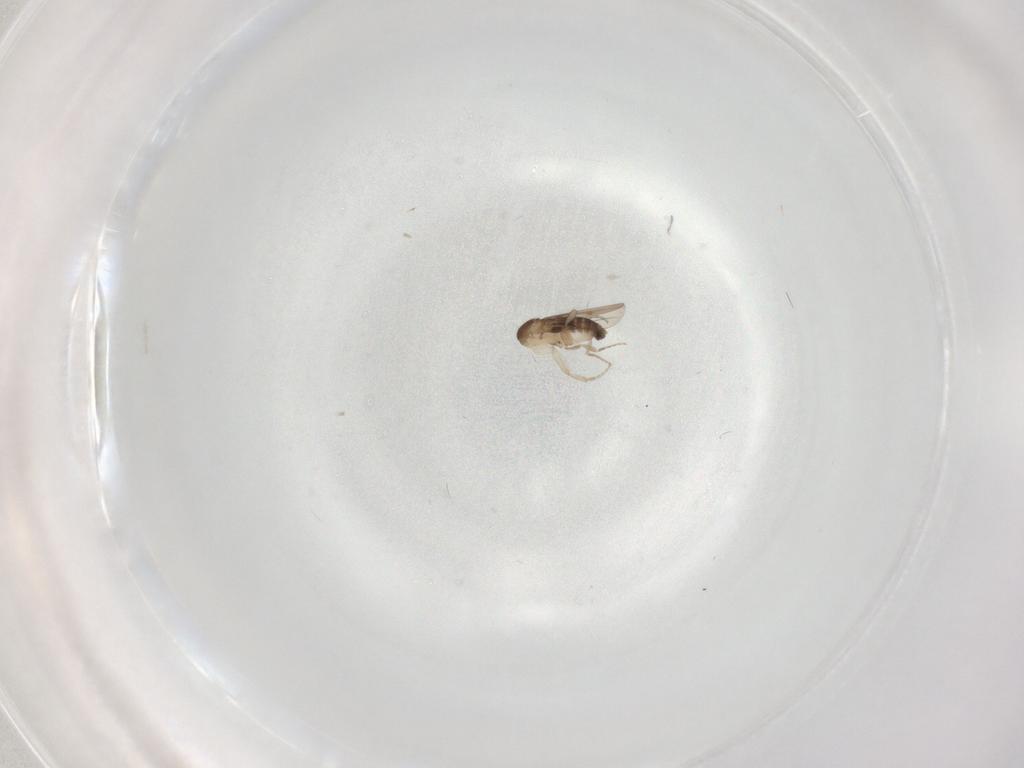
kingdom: Animalia
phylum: Arthropoda
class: Insecta
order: Diptera
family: Phoridae
